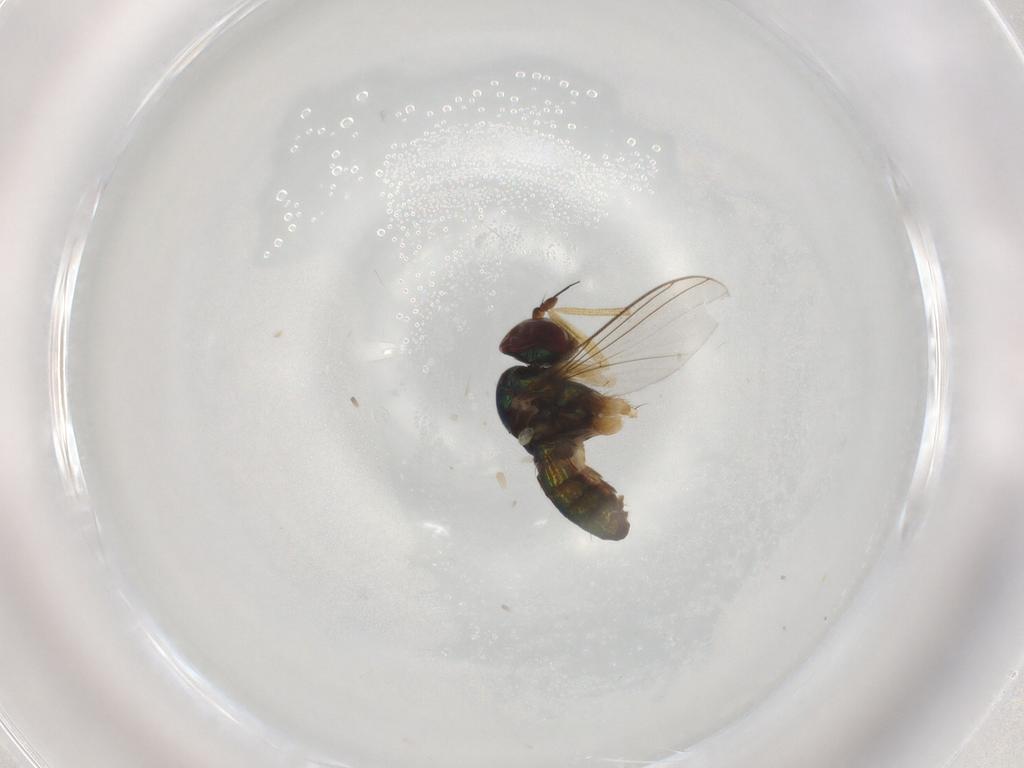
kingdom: Animalia
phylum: Arthropoda
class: Insecta
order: Diptera
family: Dolichopodidae
